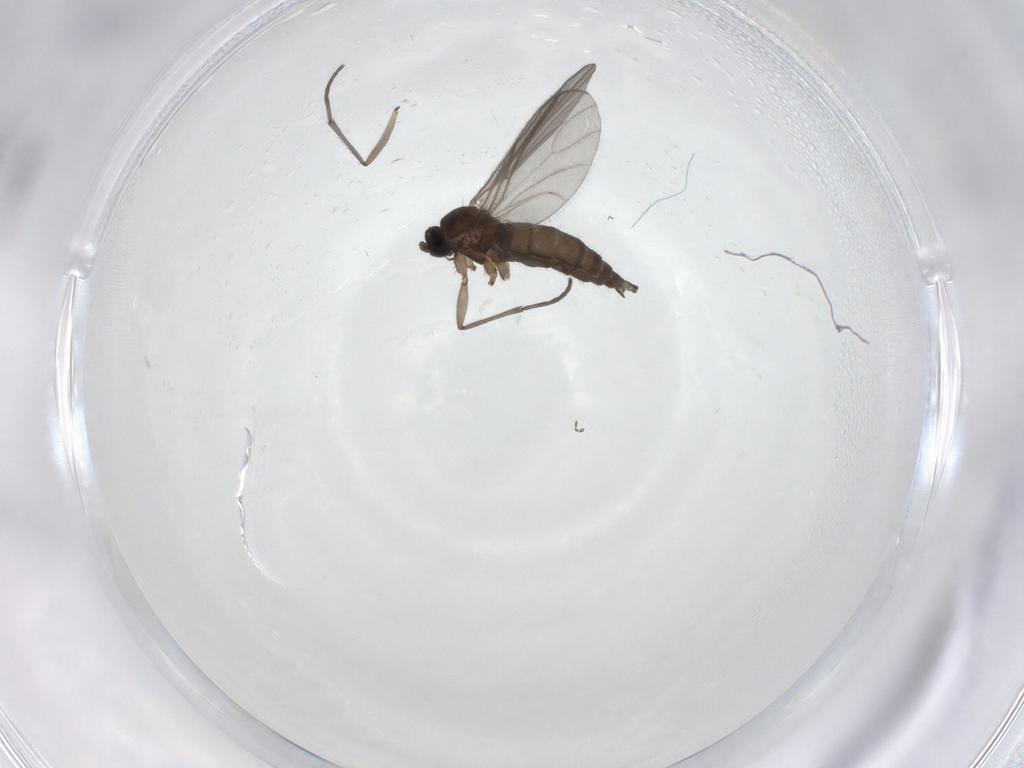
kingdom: Animalia
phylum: Arthropoda
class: Insecta
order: Diptera
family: Sciaridae
